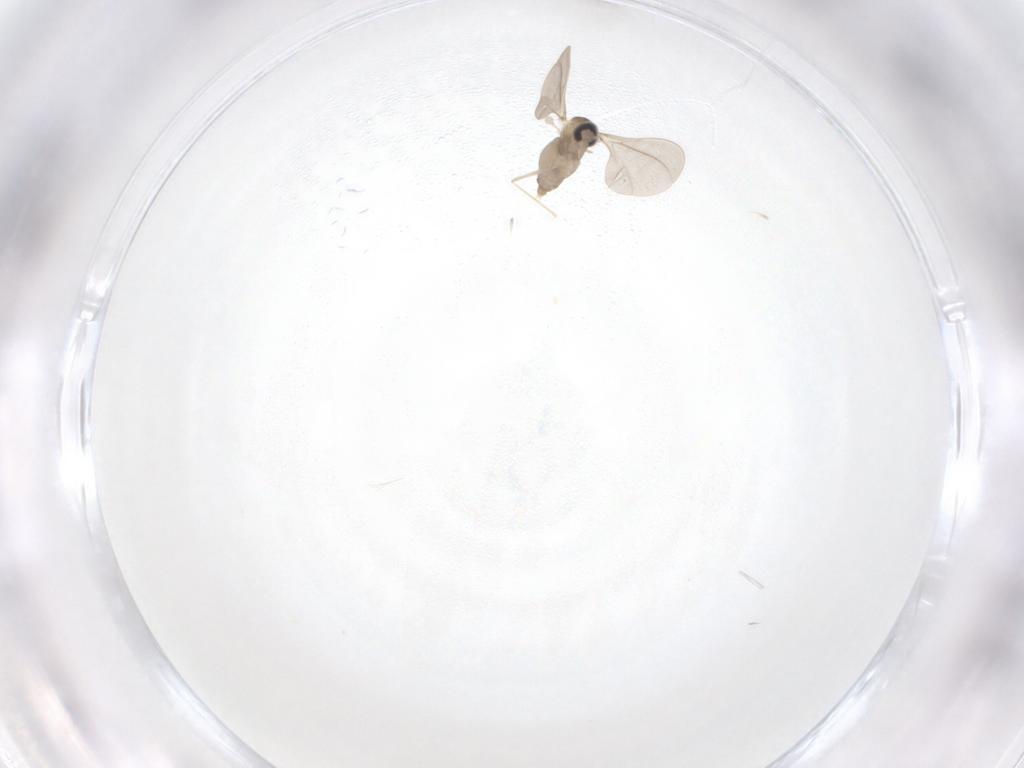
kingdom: Animalia
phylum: Arthropoda
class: Insecta
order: Diptera
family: Cecidomyiidae
